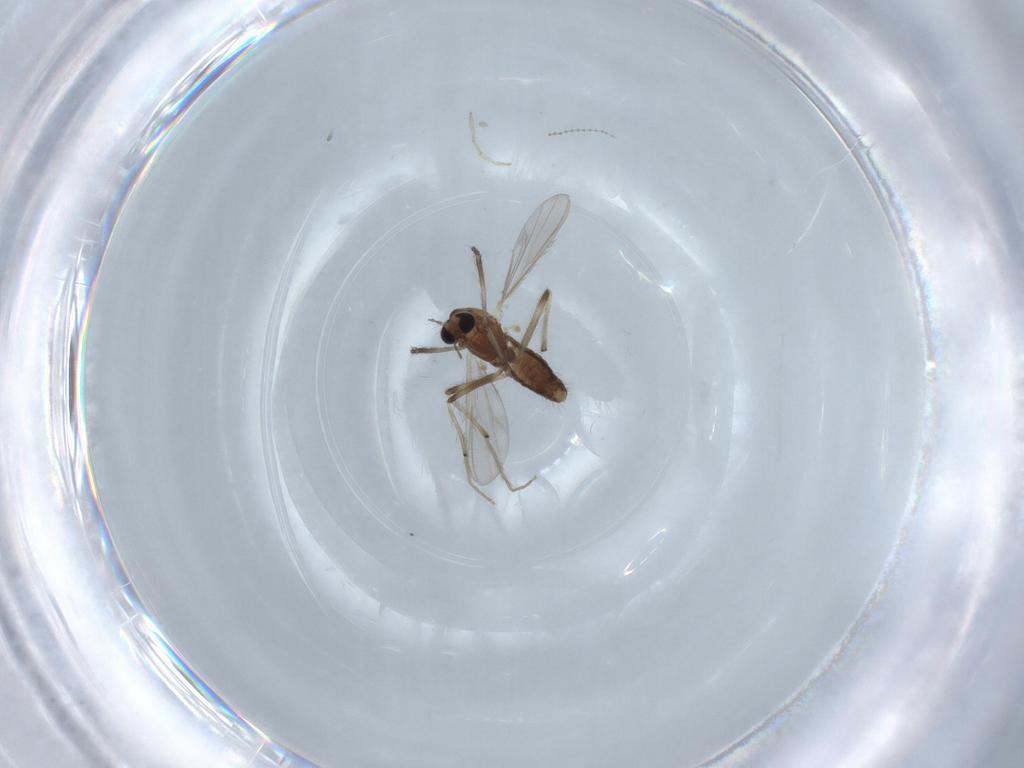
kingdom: Animalia
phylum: Arthropoda
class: Insecta
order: Diptera
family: Chironomidae
